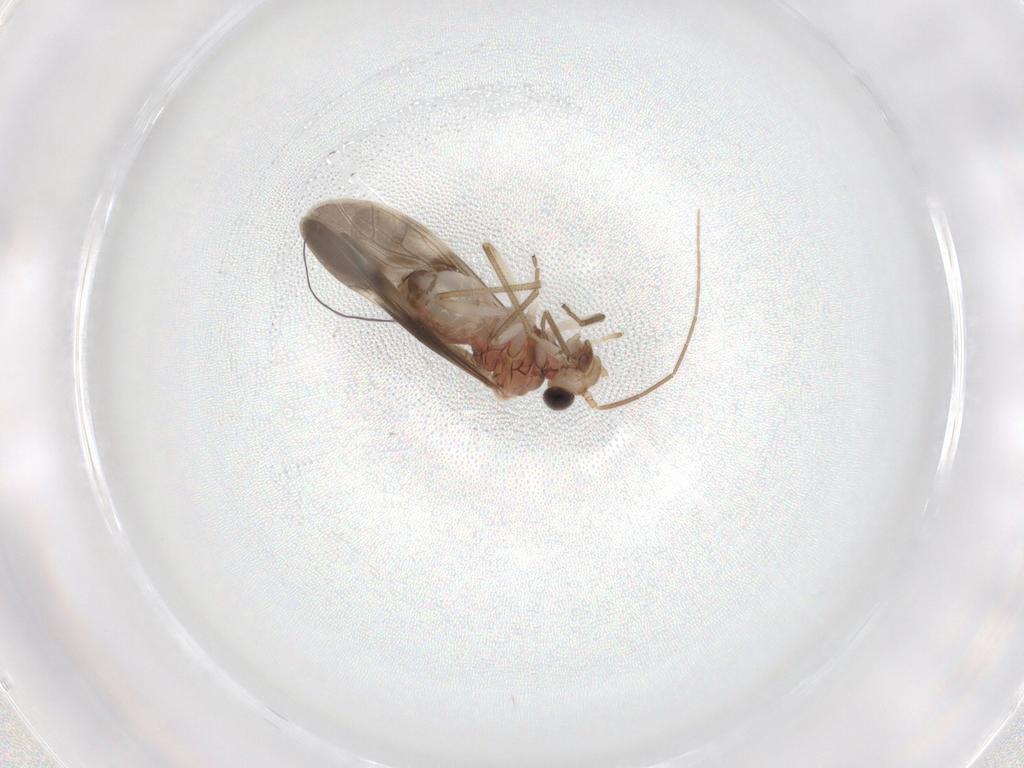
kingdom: Animalia
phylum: Arthropoda
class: Insecta
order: Psocodea
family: Caeciliusidae
